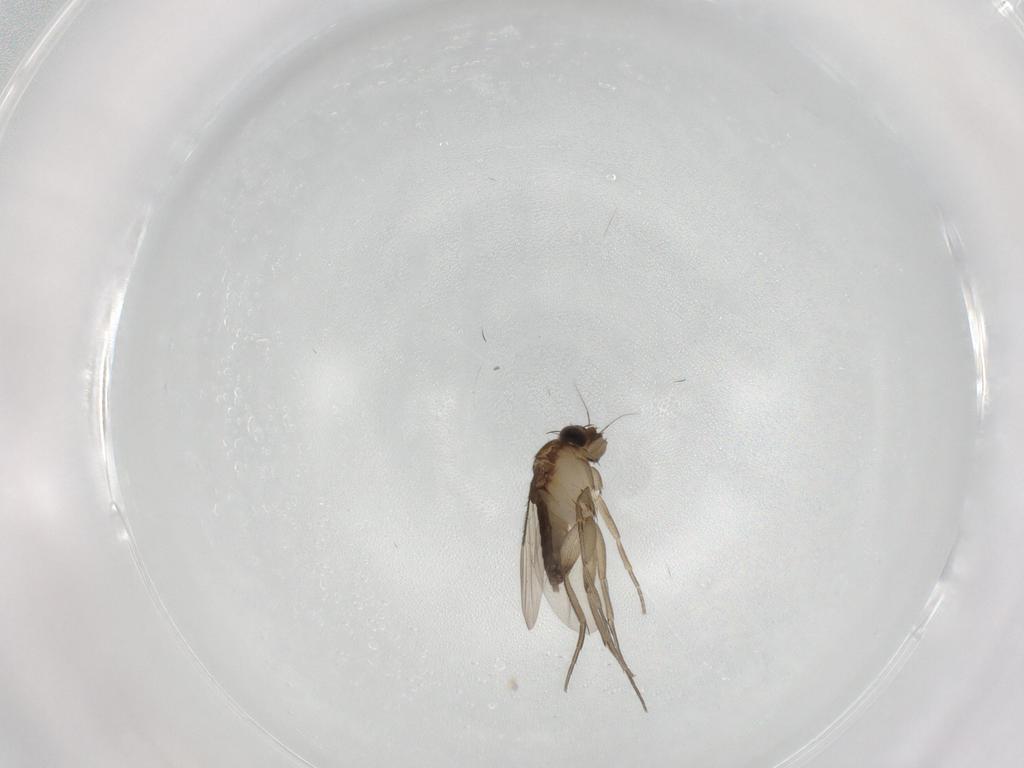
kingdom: Animalia
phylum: Arthropoda
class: Insecta
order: Diptera
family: Phoridae
